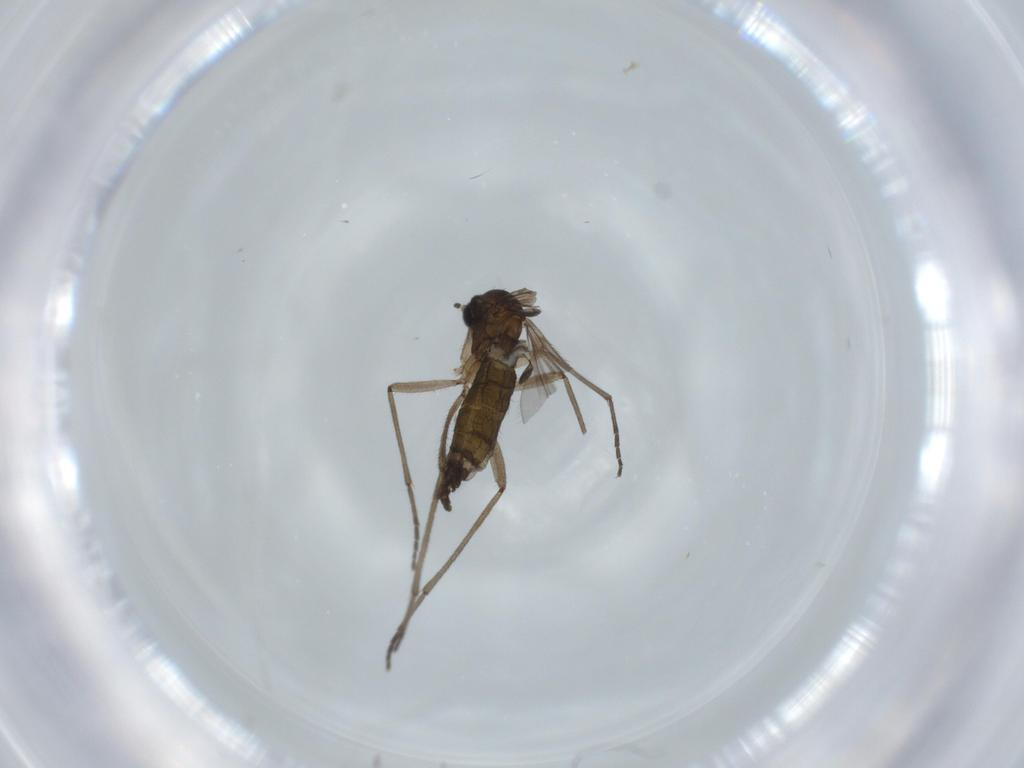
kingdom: Animalia
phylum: Arthropoda
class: Insecta
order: Diptera
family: Sciaridae
